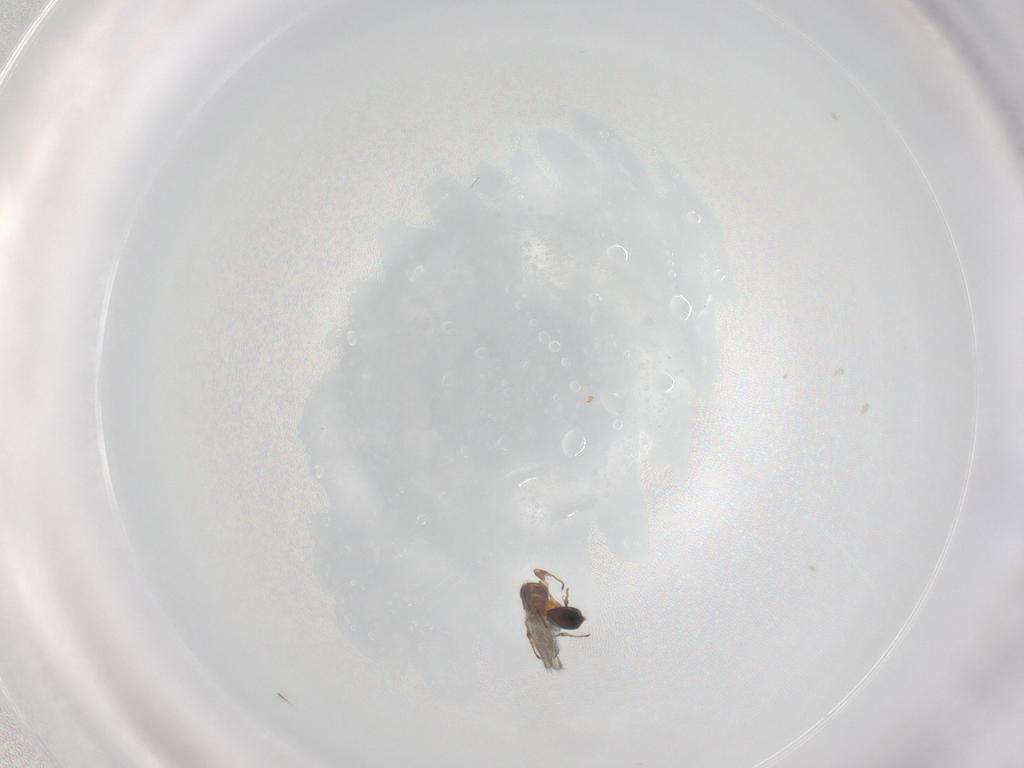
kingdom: Animalia
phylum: Arthropoda
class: Insecta
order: Hymenoptera
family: Diapriidae
